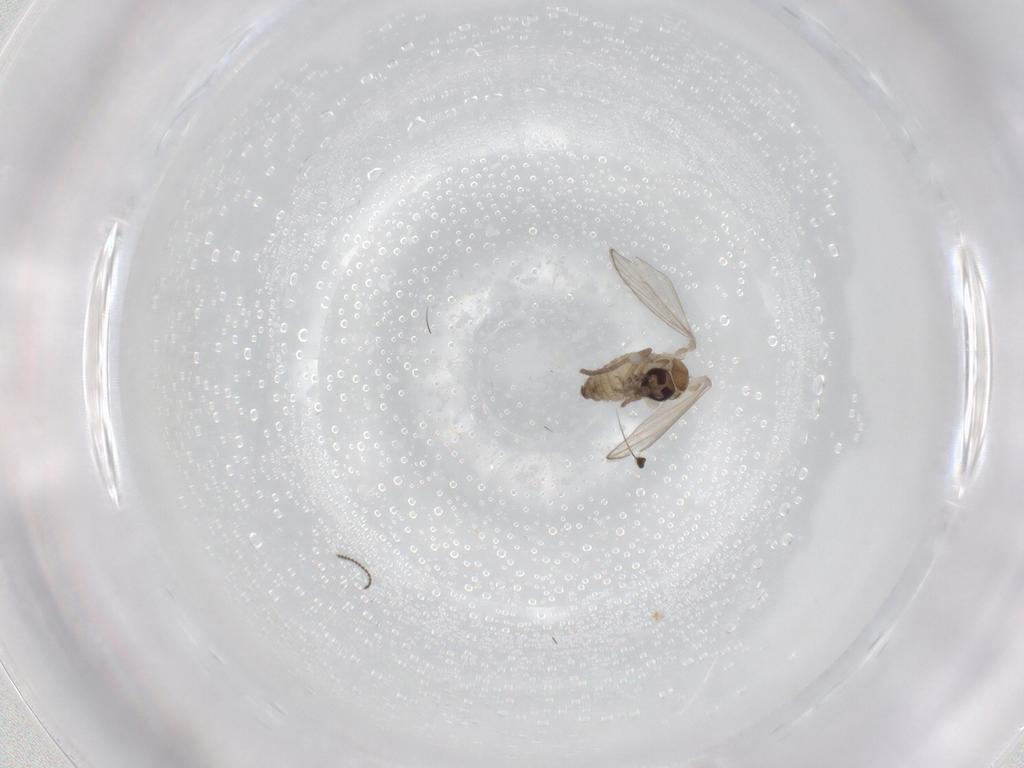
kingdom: Animalia
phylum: Arthropoda
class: Insecta
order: Diptera
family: Psychodidae
